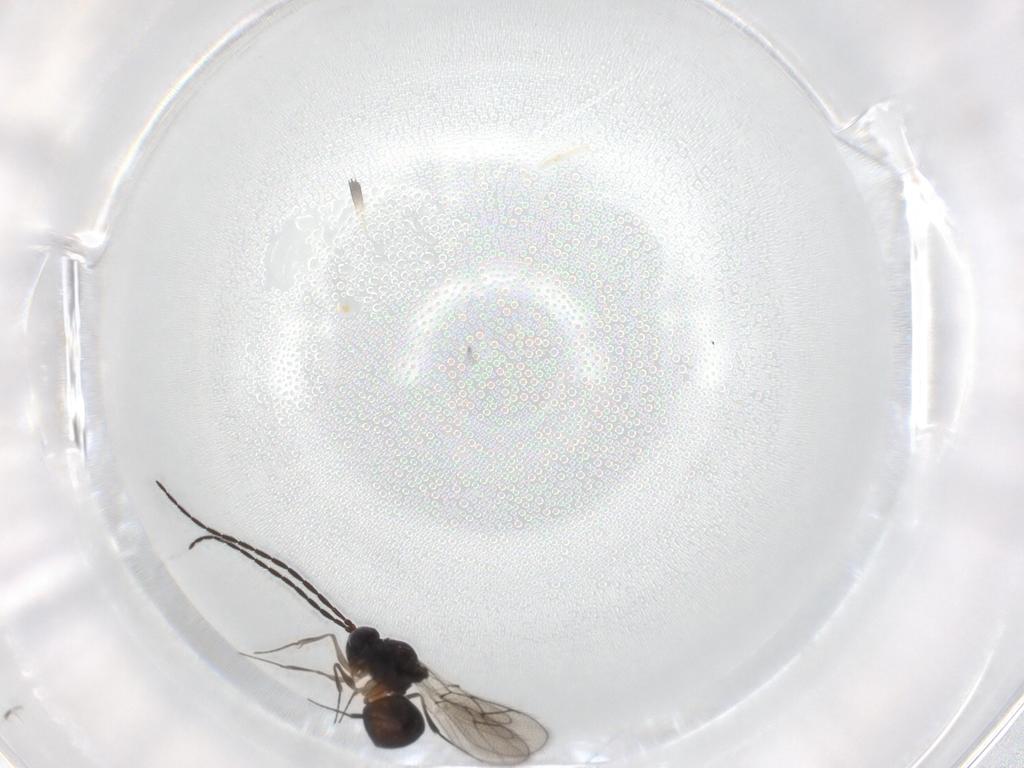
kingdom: Animalia
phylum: Arthropoda
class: Insecta
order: Hymenoptera
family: Figitidae
